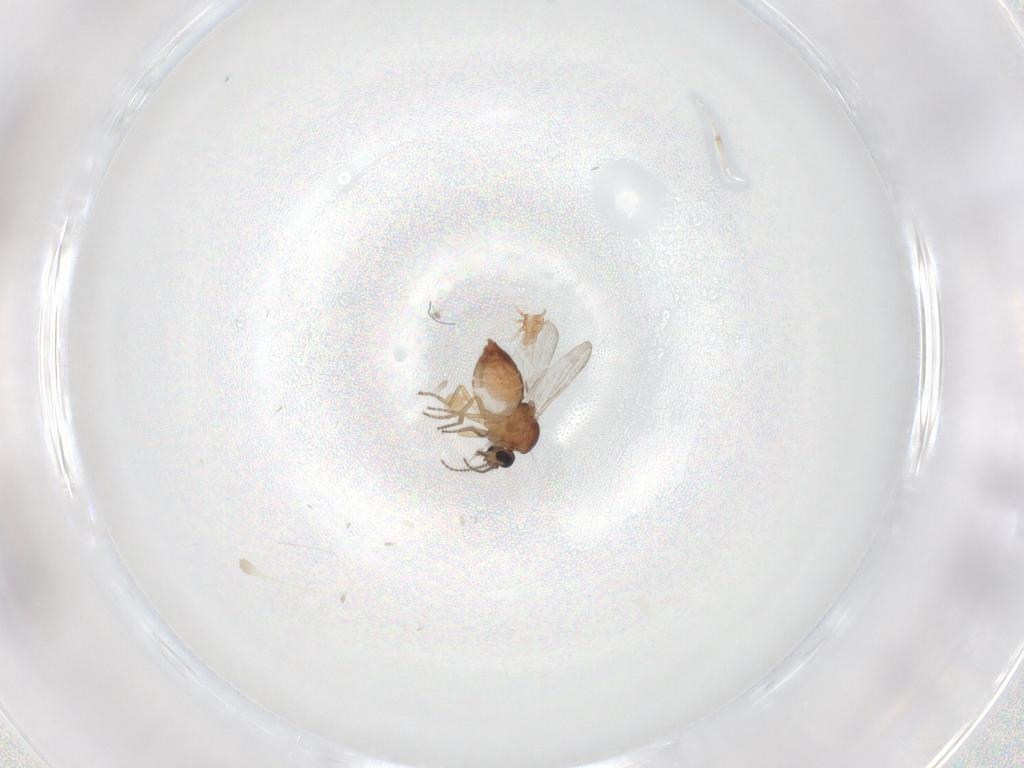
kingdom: Animalia
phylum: Arthropoda
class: Insecta
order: Diptera
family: Ceratopogonidae
